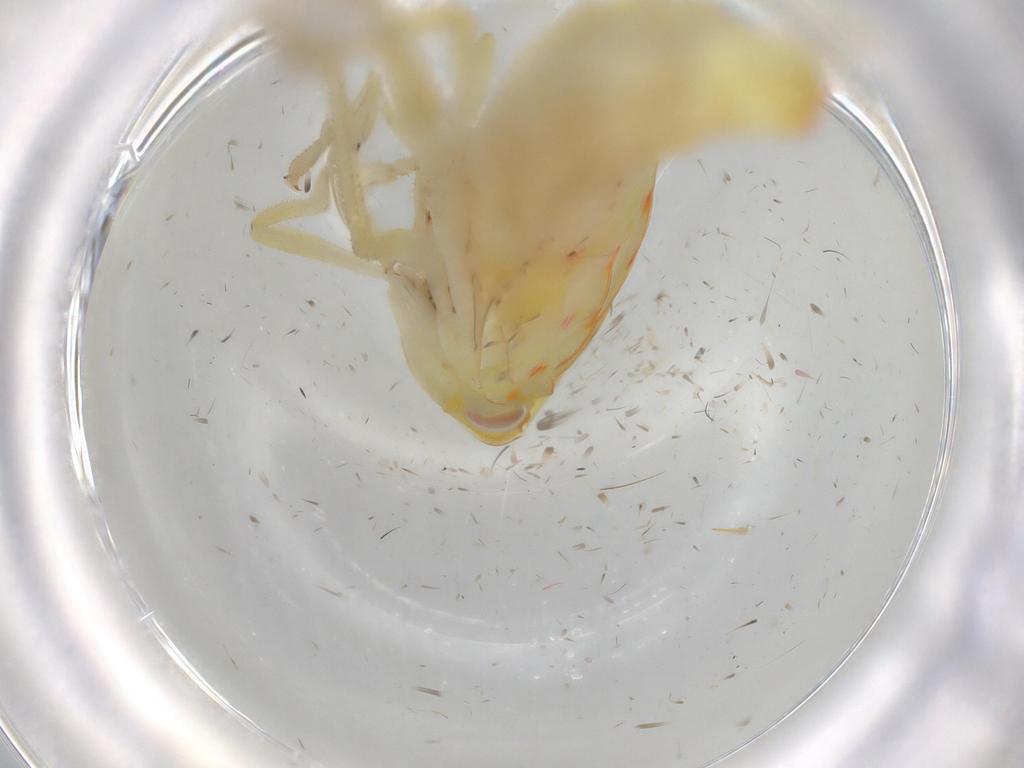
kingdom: Animalia
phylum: Arthropoda
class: Insecta
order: Hemiptera
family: Tropiduchidae
